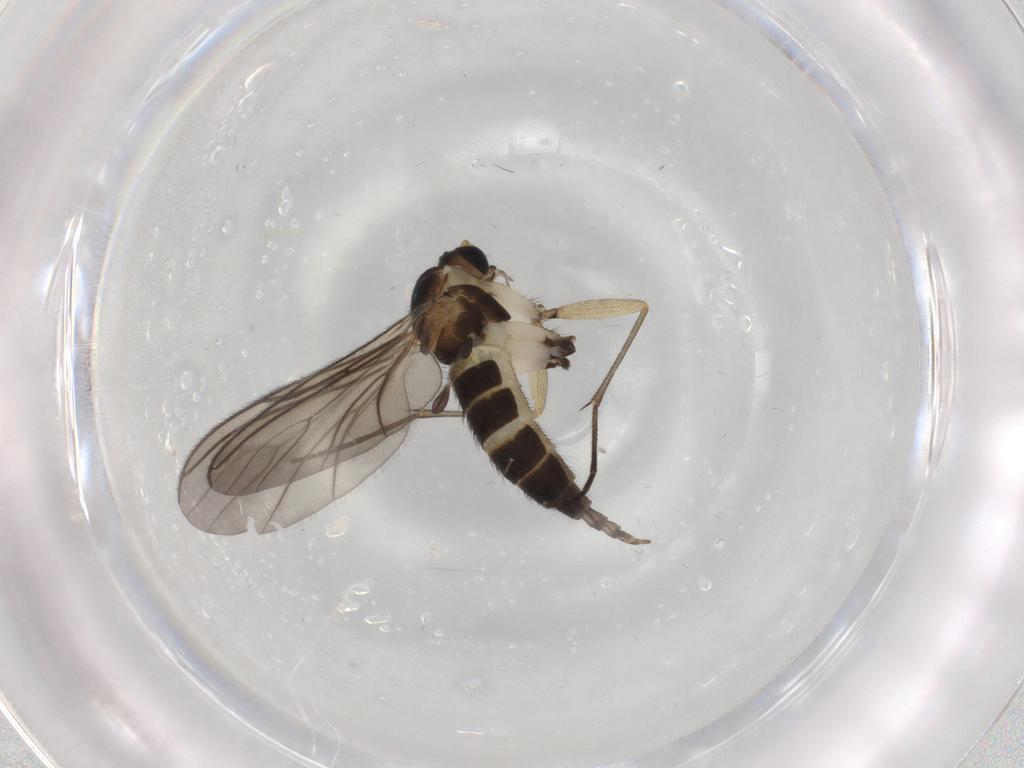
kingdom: Animalia
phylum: Arthropoda
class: Insecta
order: Diptera
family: Sciaridae
